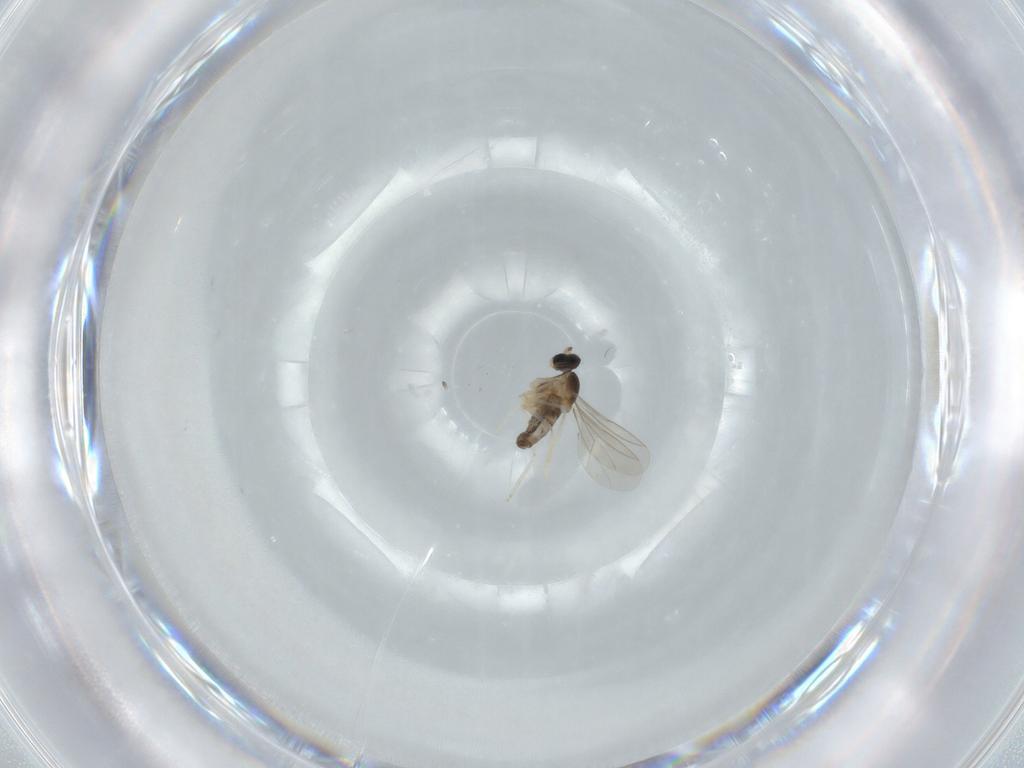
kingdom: Animalia
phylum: Arthropoda
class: Insecta
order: Diptera
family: Chironomidae
